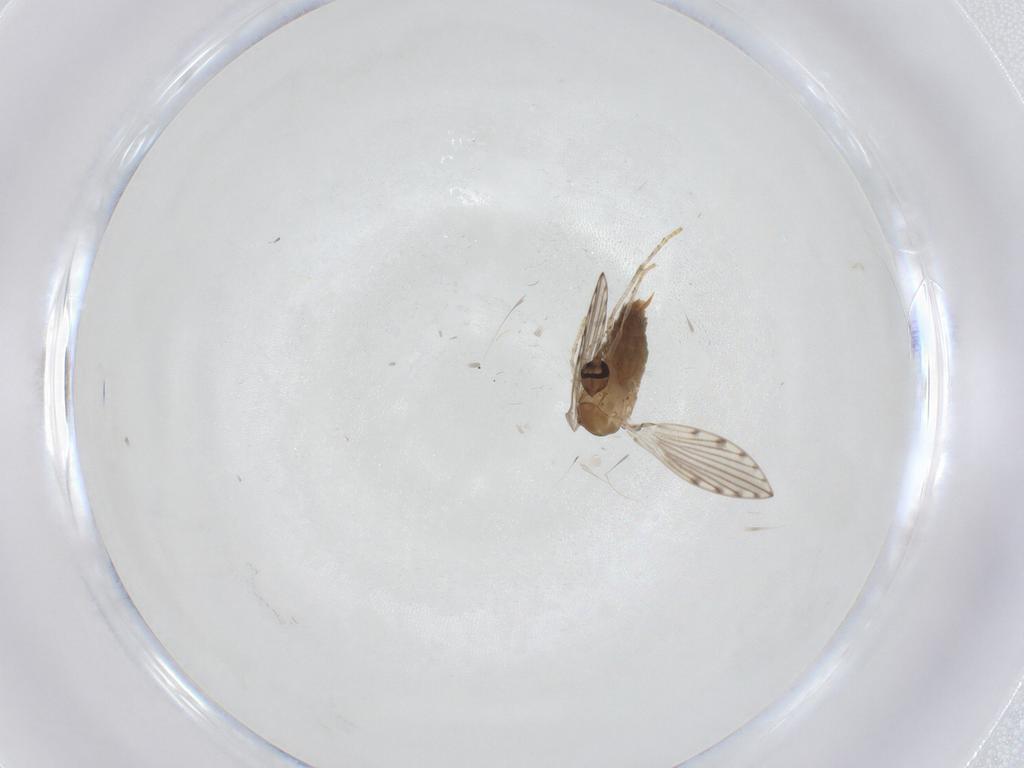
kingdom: Animalia
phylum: Arthropoda
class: Insecta
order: Diptera
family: Psychodidae
